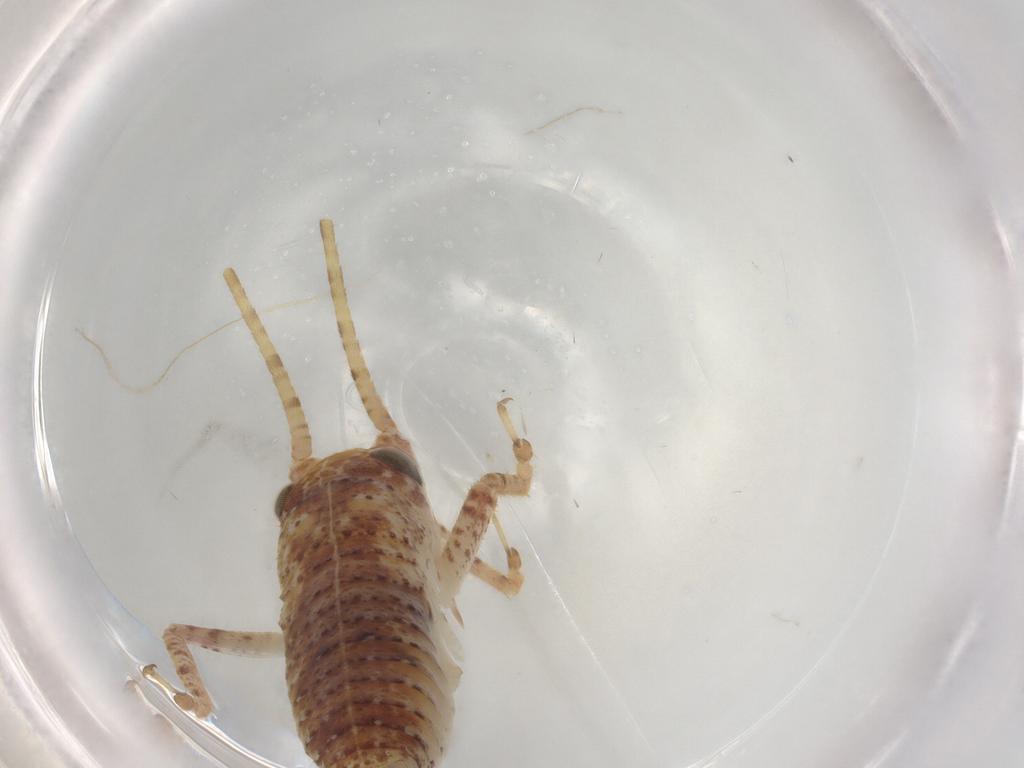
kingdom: Animalia
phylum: Arthropoda
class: Insecta
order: Orthoptera
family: Gryllidae
